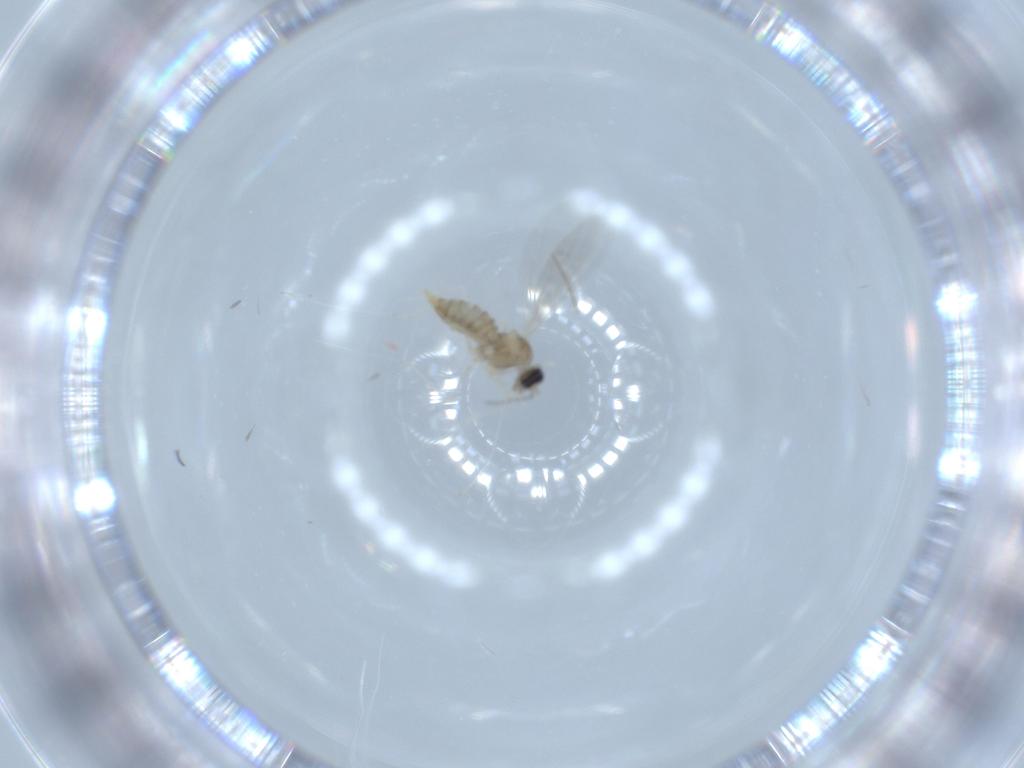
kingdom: Animalia
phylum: Arthropoda
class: Insecta
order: Diptera
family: Cecidomyiidae
